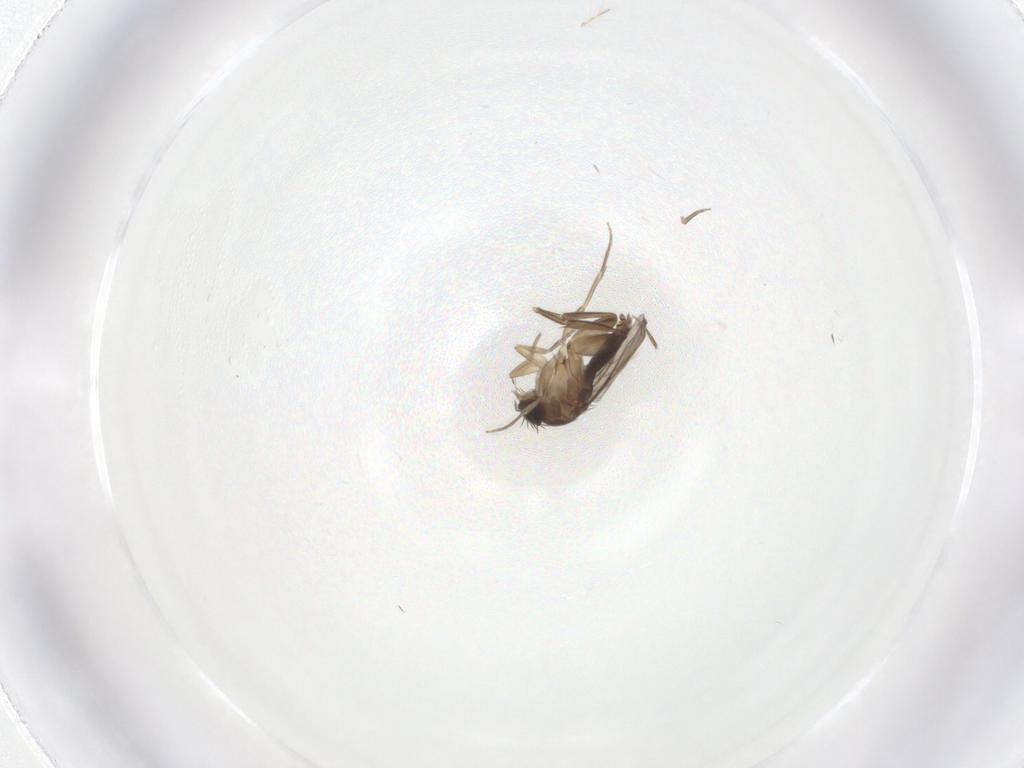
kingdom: Animalia
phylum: Arthropoda
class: Insecta
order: Diptera
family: Phoridae
